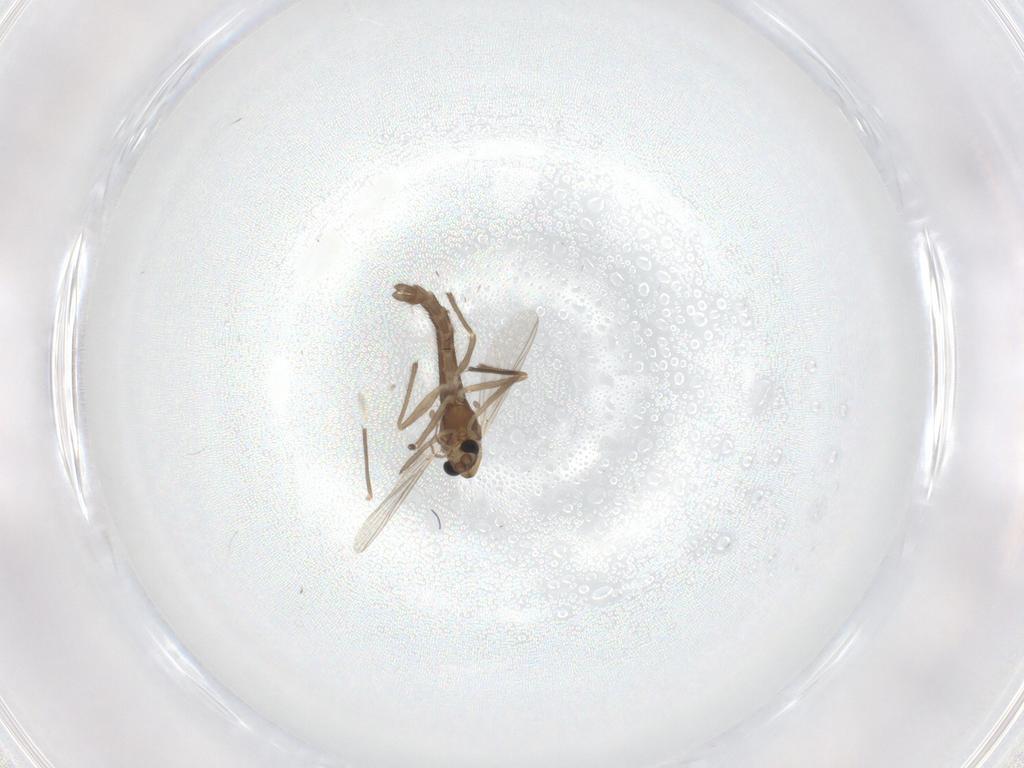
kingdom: Animalia
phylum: Arthropoda
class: Insecta
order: Diptera
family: Chironomidae
